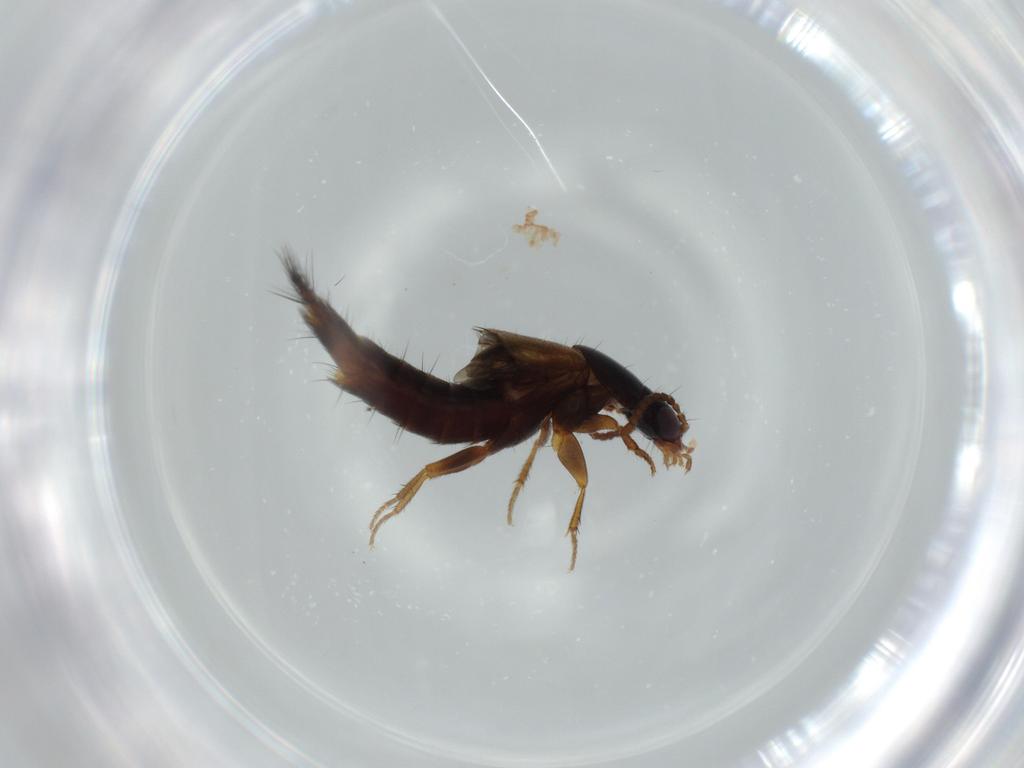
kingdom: Animalia
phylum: Arthropoda
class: Insecta
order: Coleoptera
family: Staphylinidae
